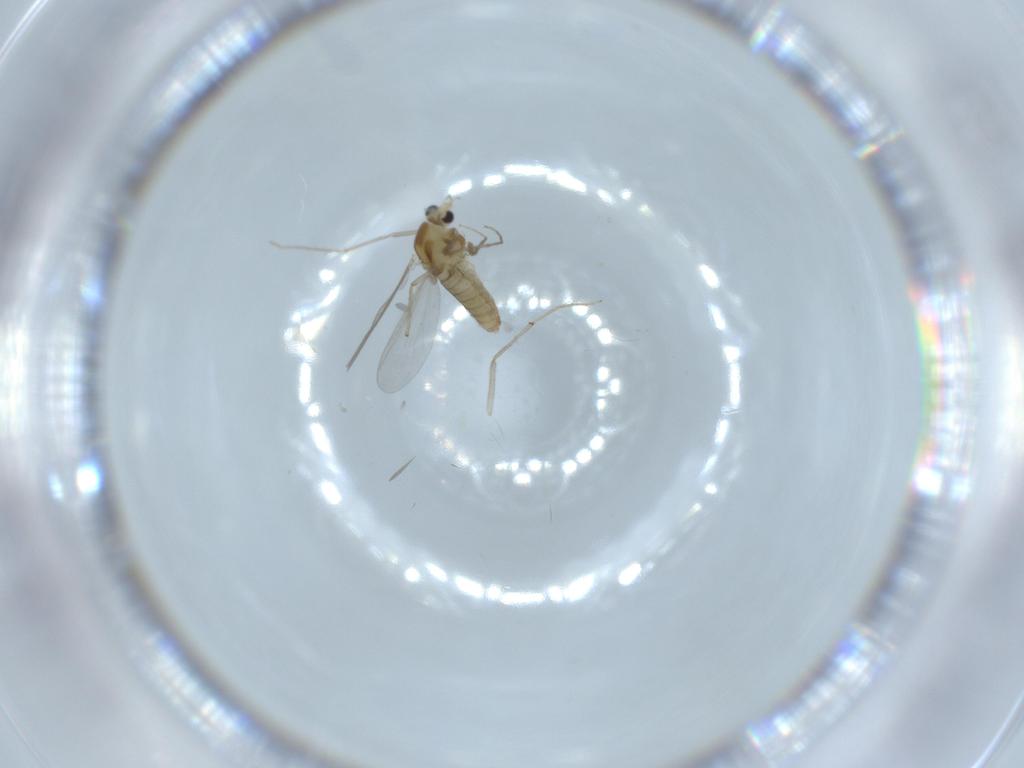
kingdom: Animalia
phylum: Arthropoda
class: Insecta
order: Diptera
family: Chironomidae
